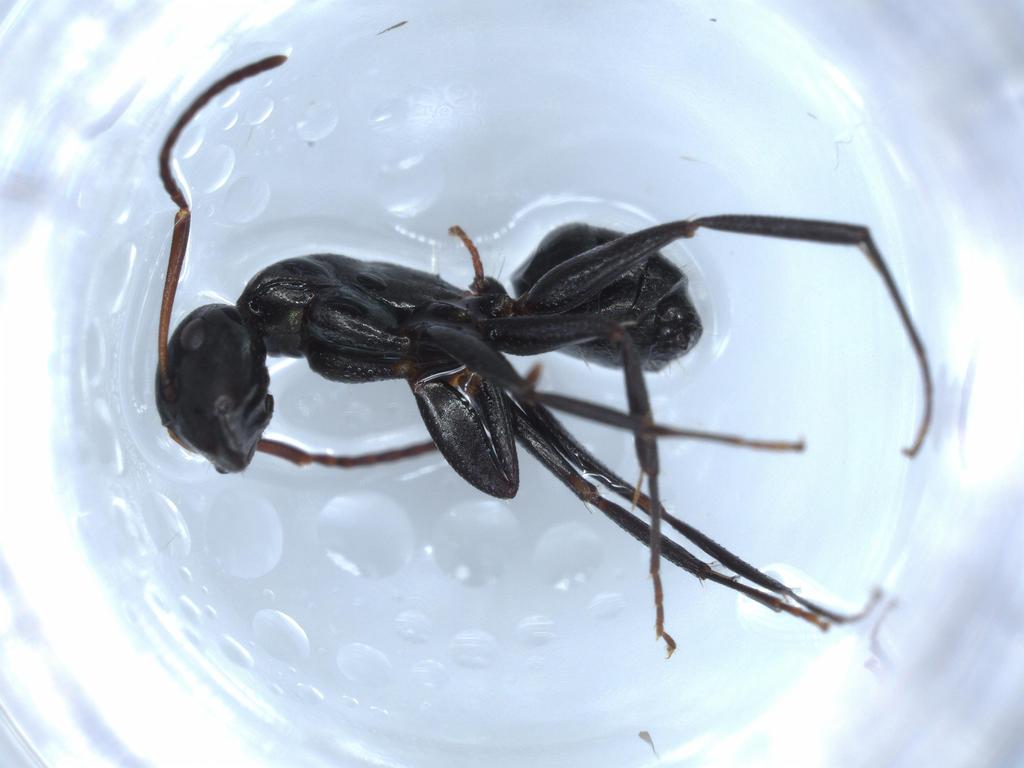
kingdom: Animalia
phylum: Arthropoda
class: Insecta
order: Hymenoptera
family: Formicidae
